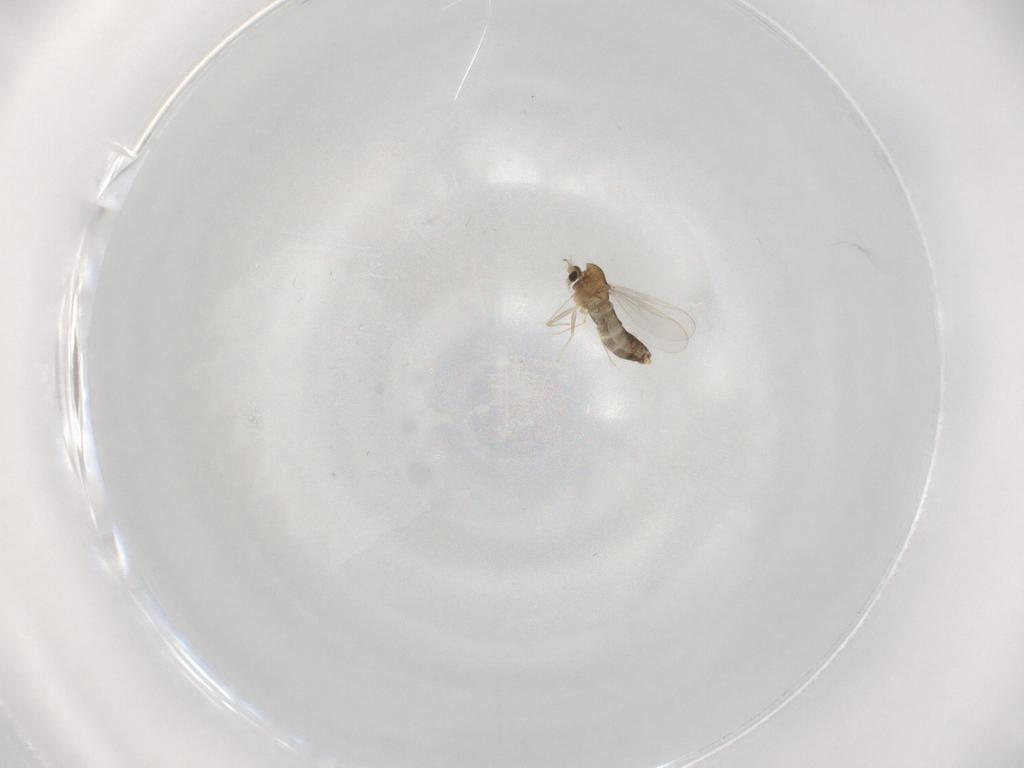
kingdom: Animalia
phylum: Arthropoda
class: Insecta
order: Diptera
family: Chironomidae
